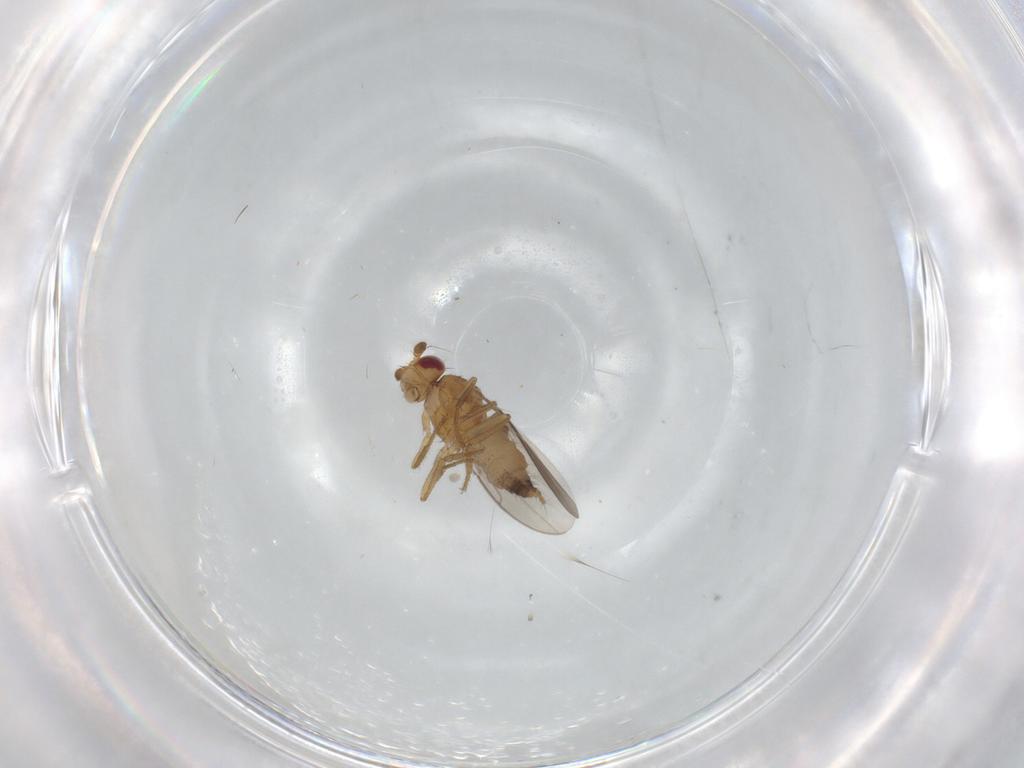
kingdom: Animalia
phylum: Arthropoda
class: Insecta
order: Diptera
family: Sphaeroceridae
